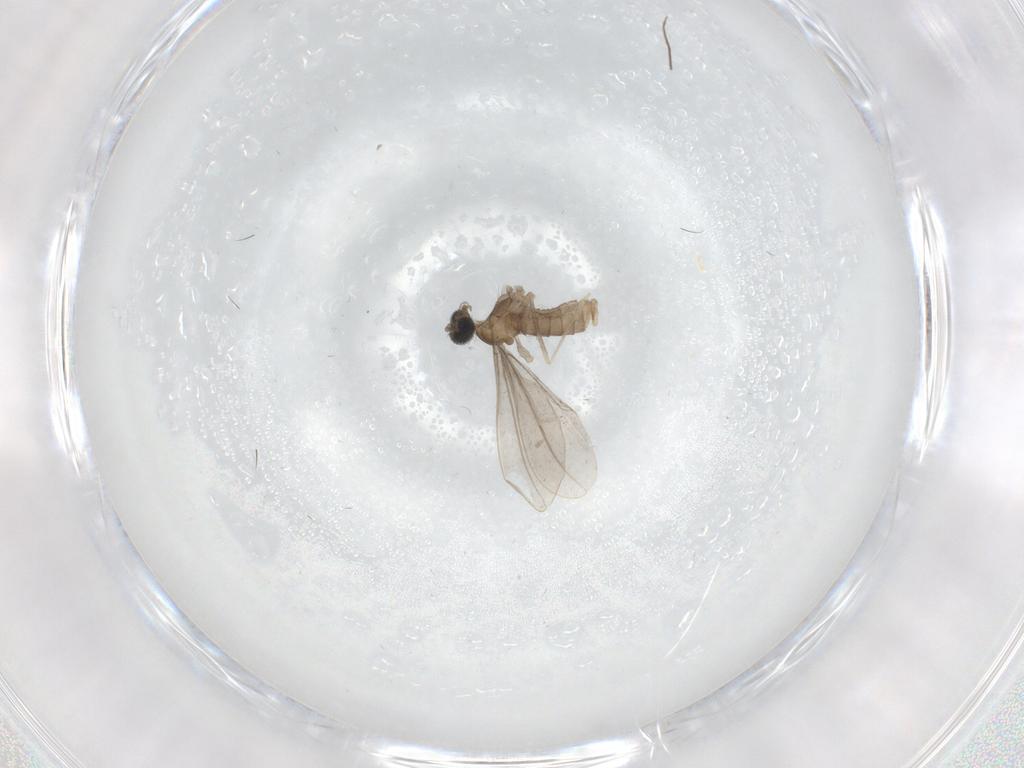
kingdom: Animalia
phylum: Arthropoda
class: Insecta
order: Diptera
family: Cecidomyiidae
